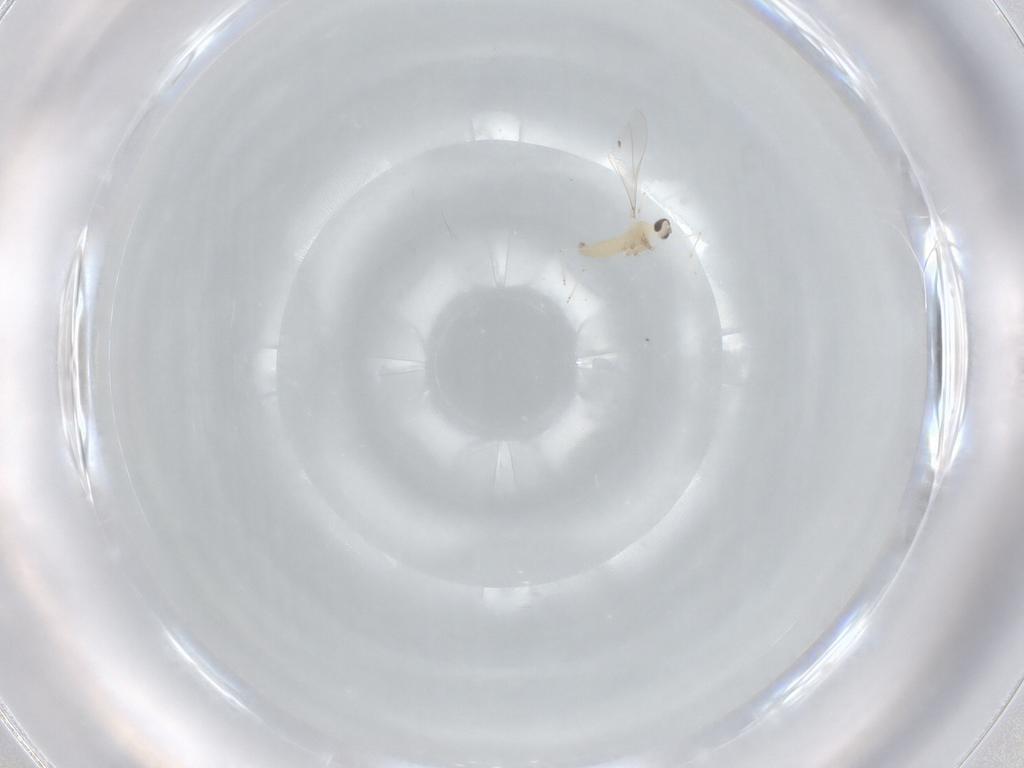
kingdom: Animalia
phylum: Arthropoda
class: Insecta
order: Diptera
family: Cecidomyiidae
